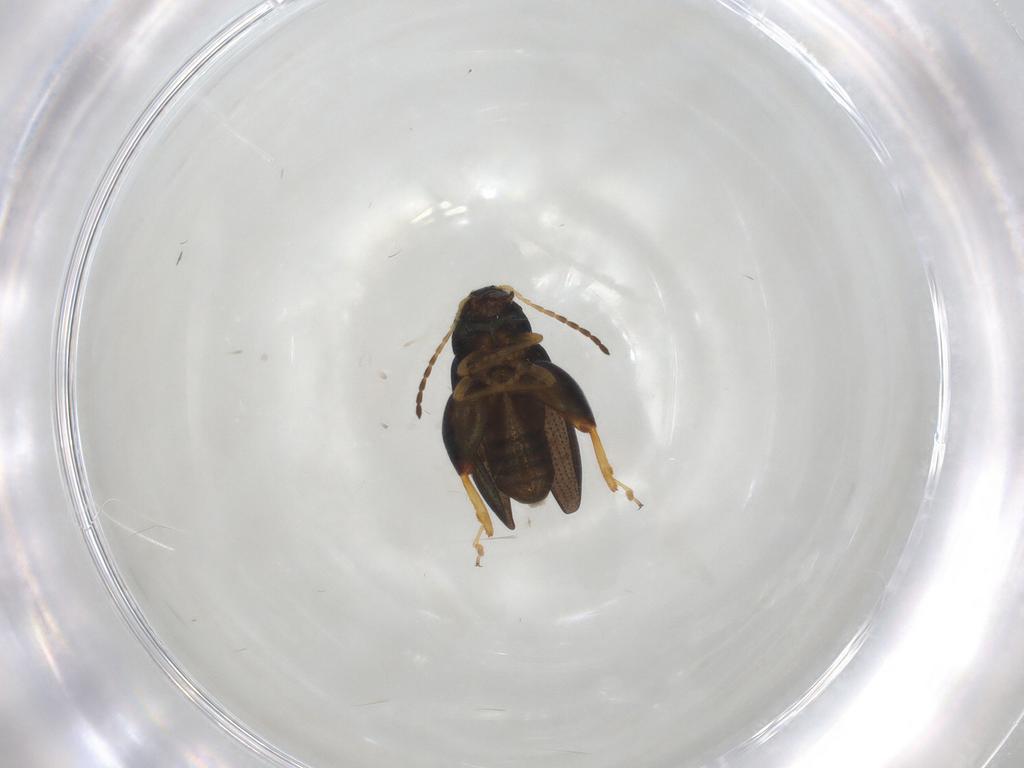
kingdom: Animalia
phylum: Arthropoda
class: Insecta
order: Coleoptera
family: Chrysomelidae
